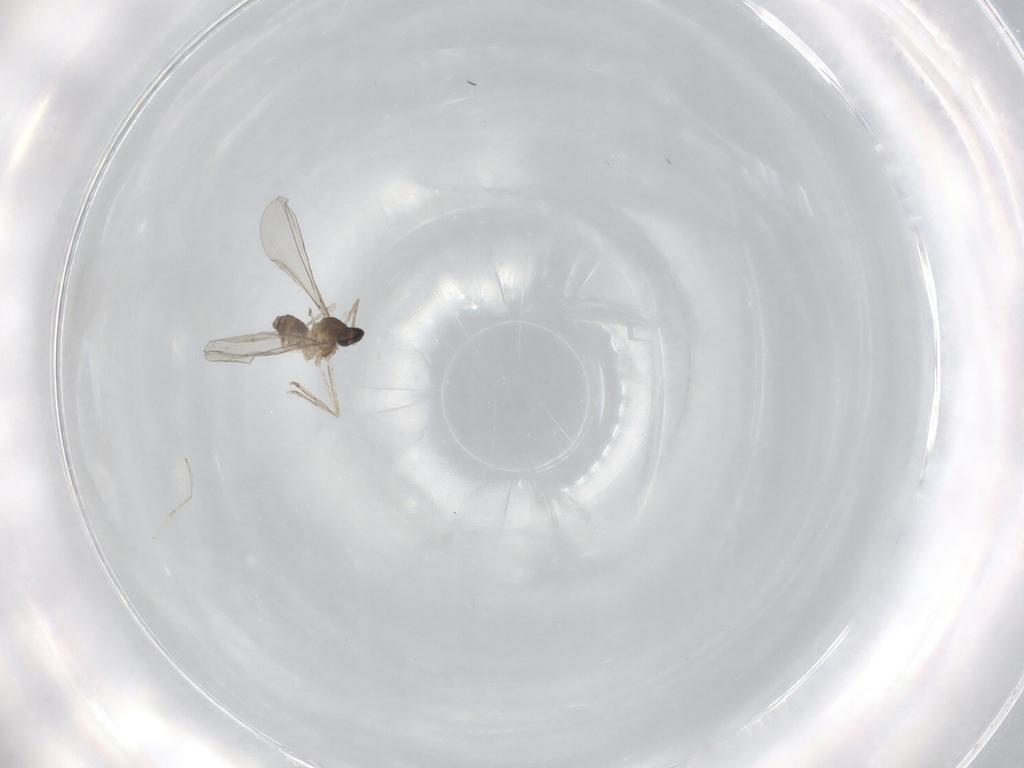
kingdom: Animalia
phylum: Arthropoda
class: Insecta
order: Diptera
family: Cecidomyiidae
